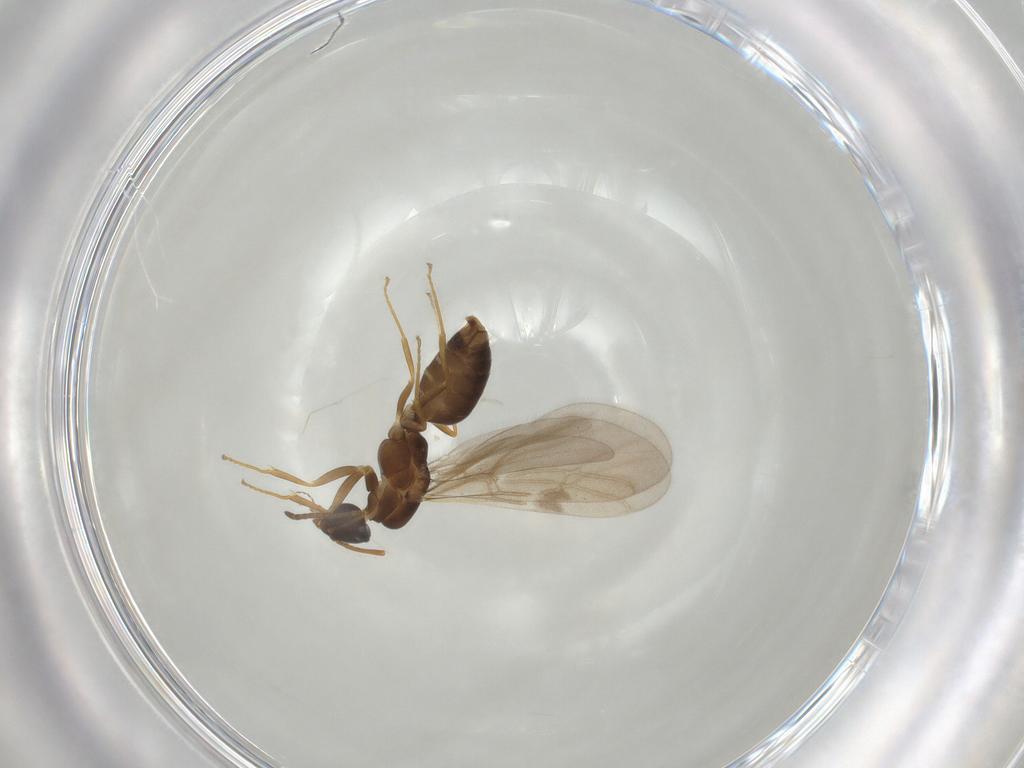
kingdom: Animalia
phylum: Arthropoda
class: Insecta
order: Hymenoptera
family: Formicidae
